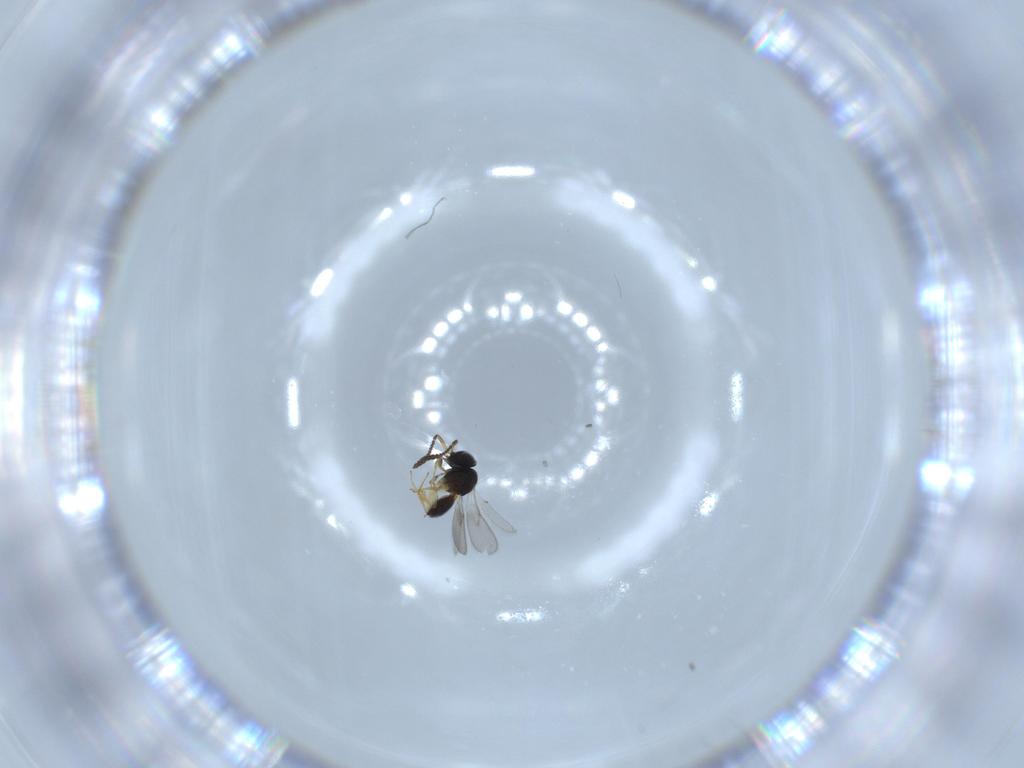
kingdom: Animalia
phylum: Arthropoda
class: Insecta
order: Hymenoptera
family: Scelionidae
